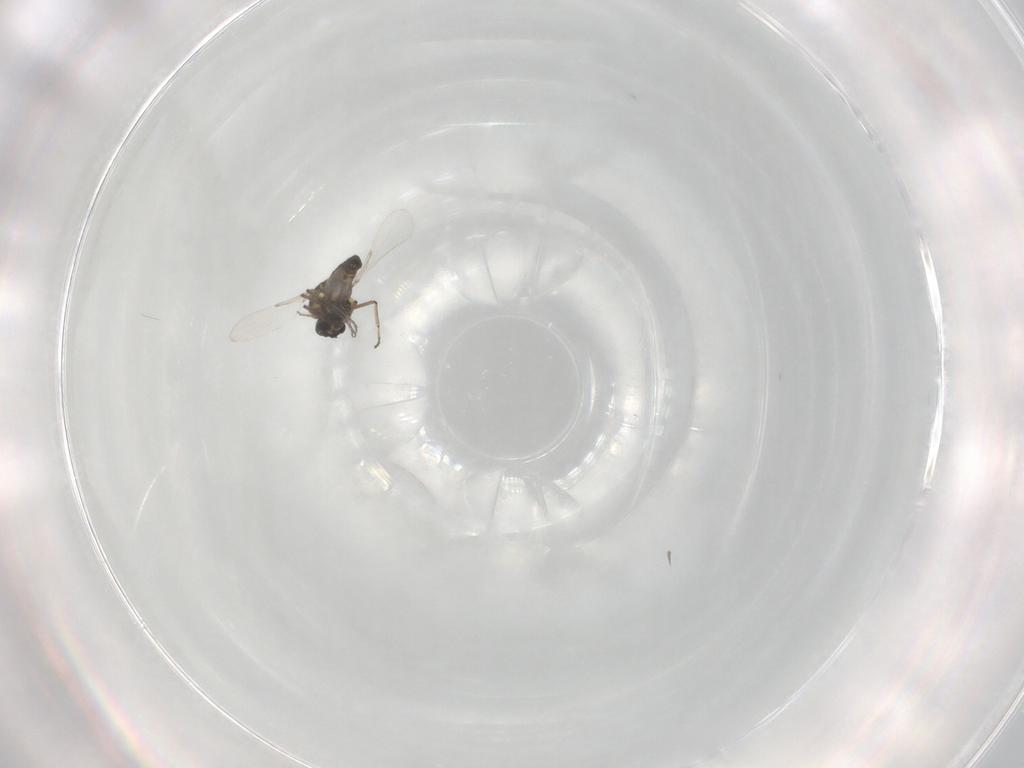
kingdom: Animalia
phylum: Arthropoda
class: Insecta
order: Diptera
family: Ceratopogonidae
